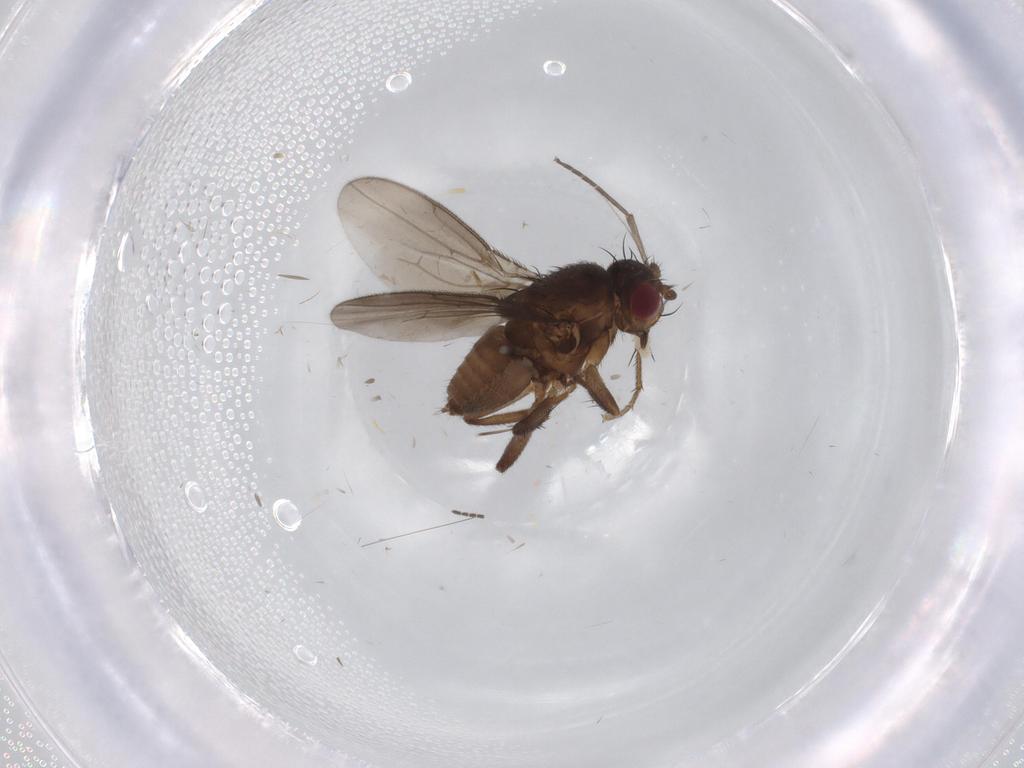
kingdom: Animalia
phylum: Arthropoda
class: Insecta
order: Diptera
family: Sciaridae
